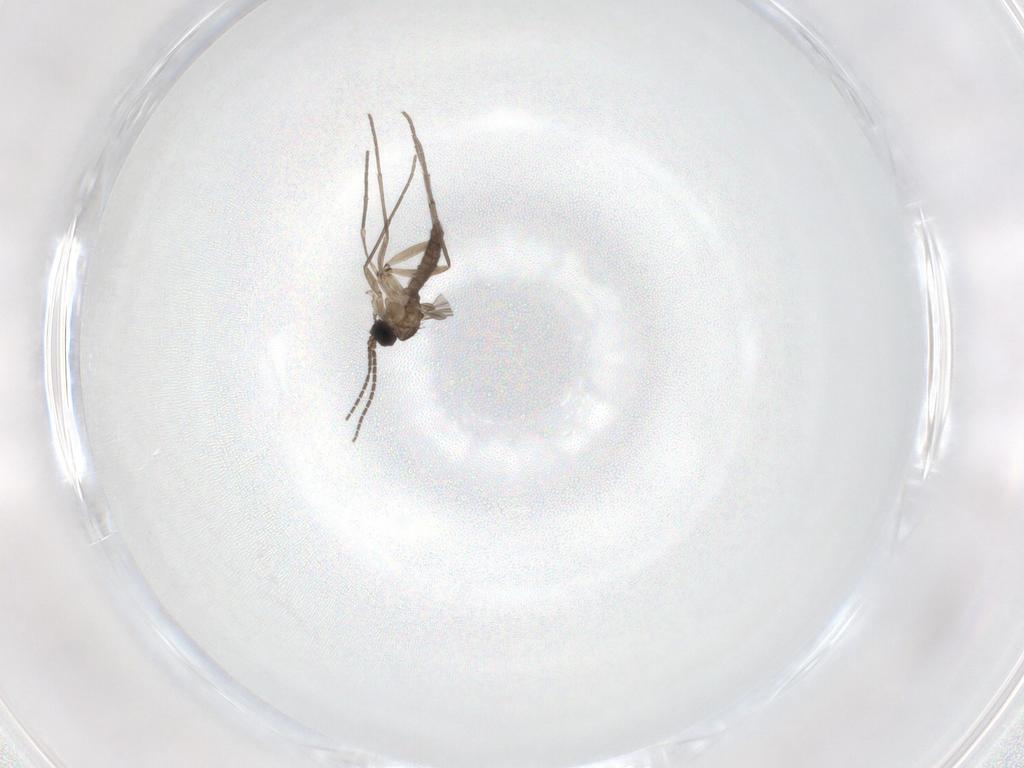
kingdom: Animalia
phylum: Arthropoda
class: Insecta
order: Diptera
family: Sciaridae
